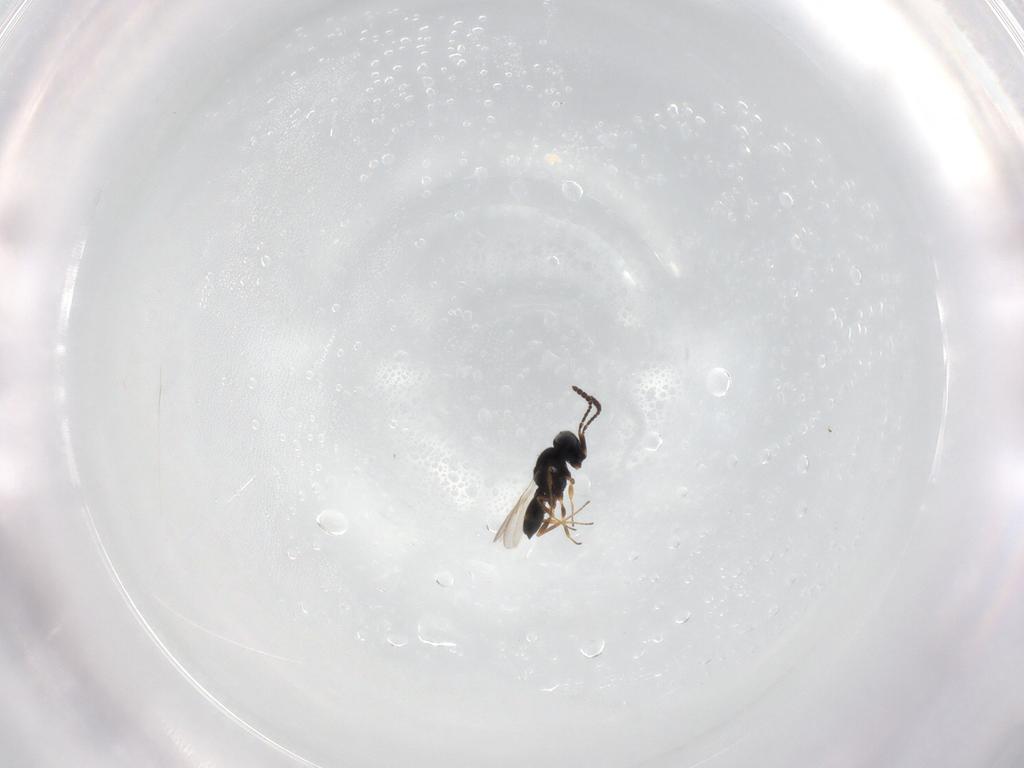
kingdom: Animalia
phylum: Arthropoda
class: Insecta
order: Hymenoptera
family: Scelionidae
